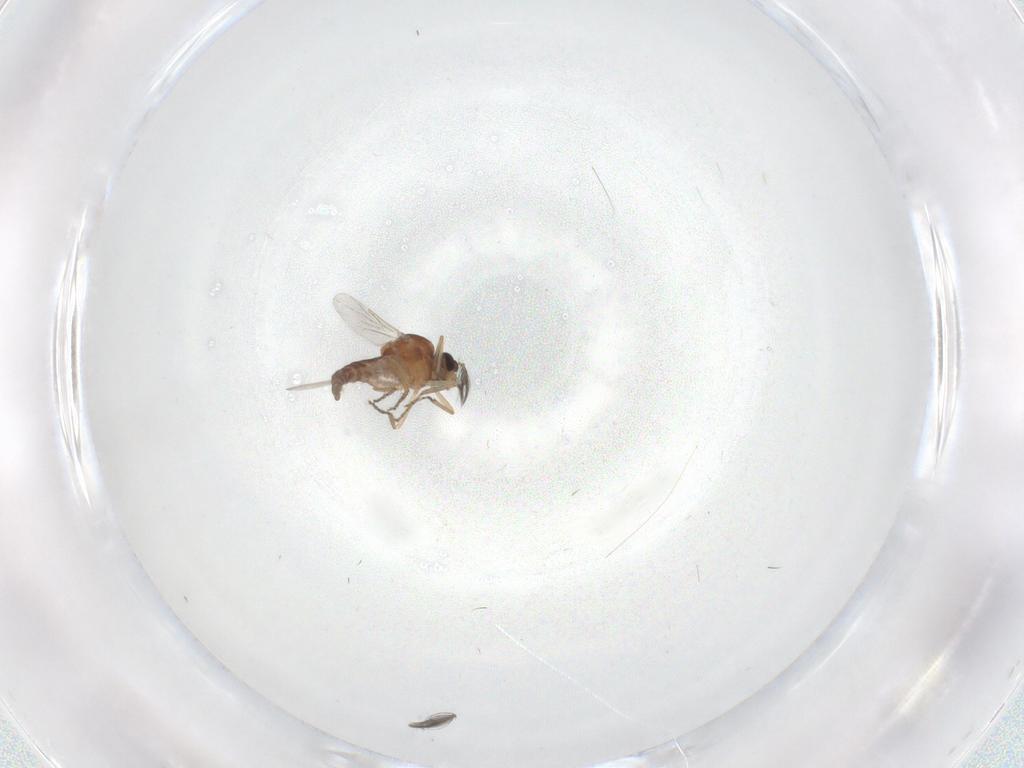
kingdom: Animalia
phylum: Arthropoda
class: Insecta
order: Diptera
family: Ceratopogonidae
